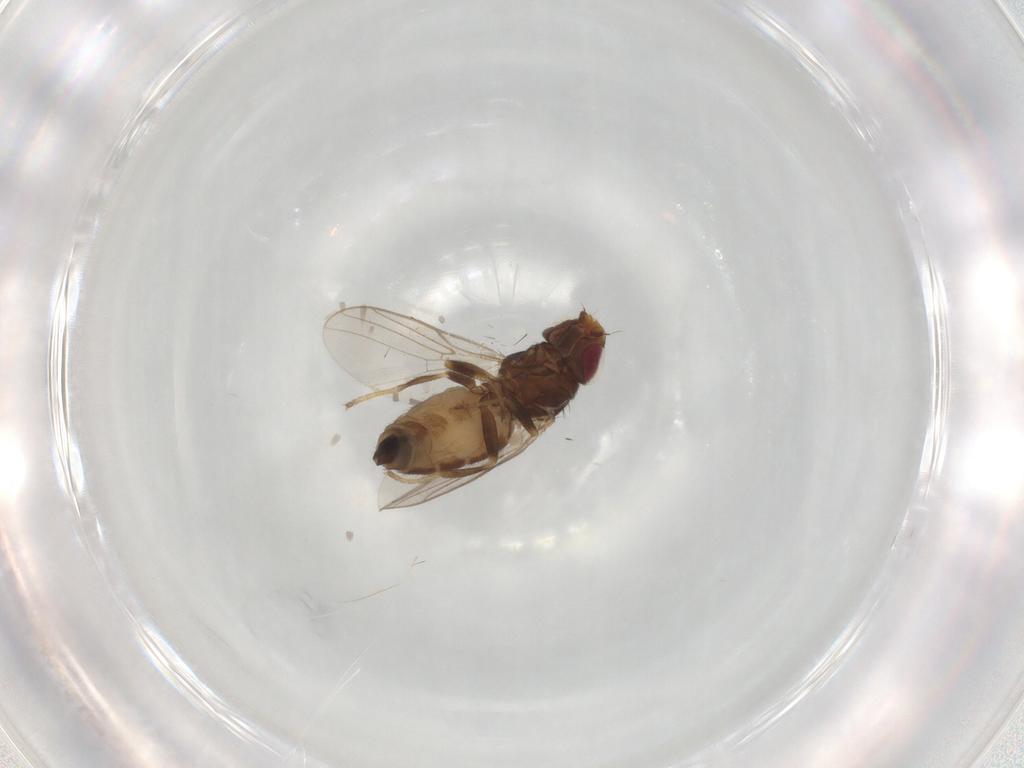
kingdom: Animalia
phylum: Arthropoda
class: Insecta
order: Diptera
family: Chloropidae
